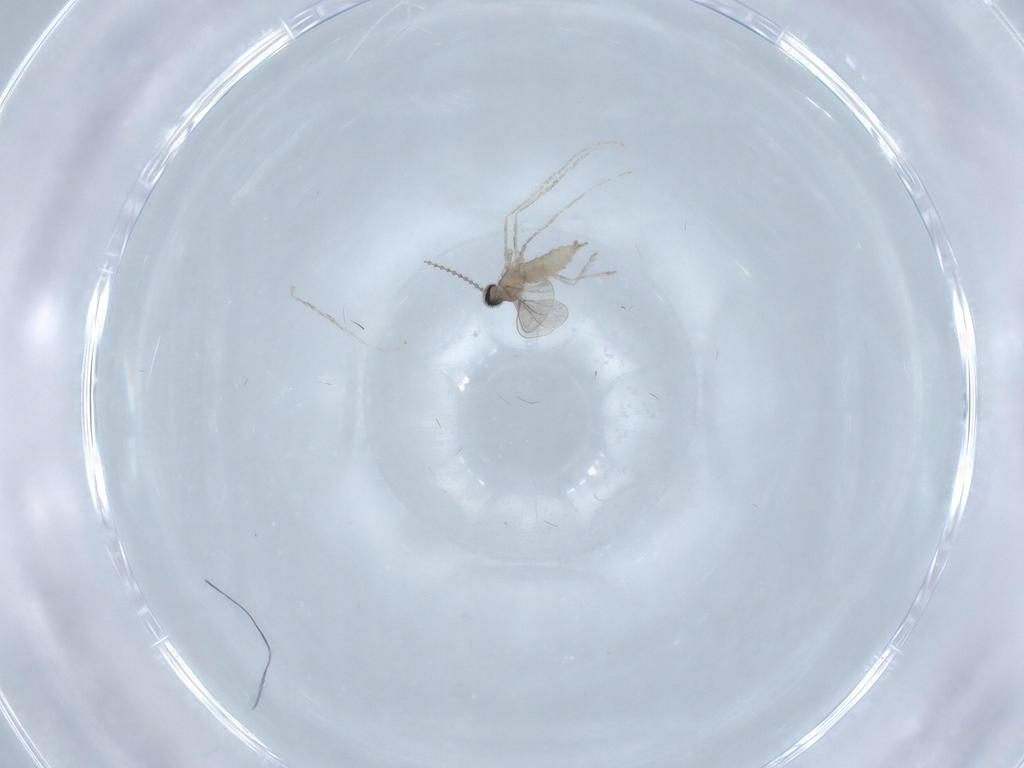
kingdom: Animalia
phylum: Arthropoda
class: Insecta
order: Diptera
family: Cecidomyiidae
